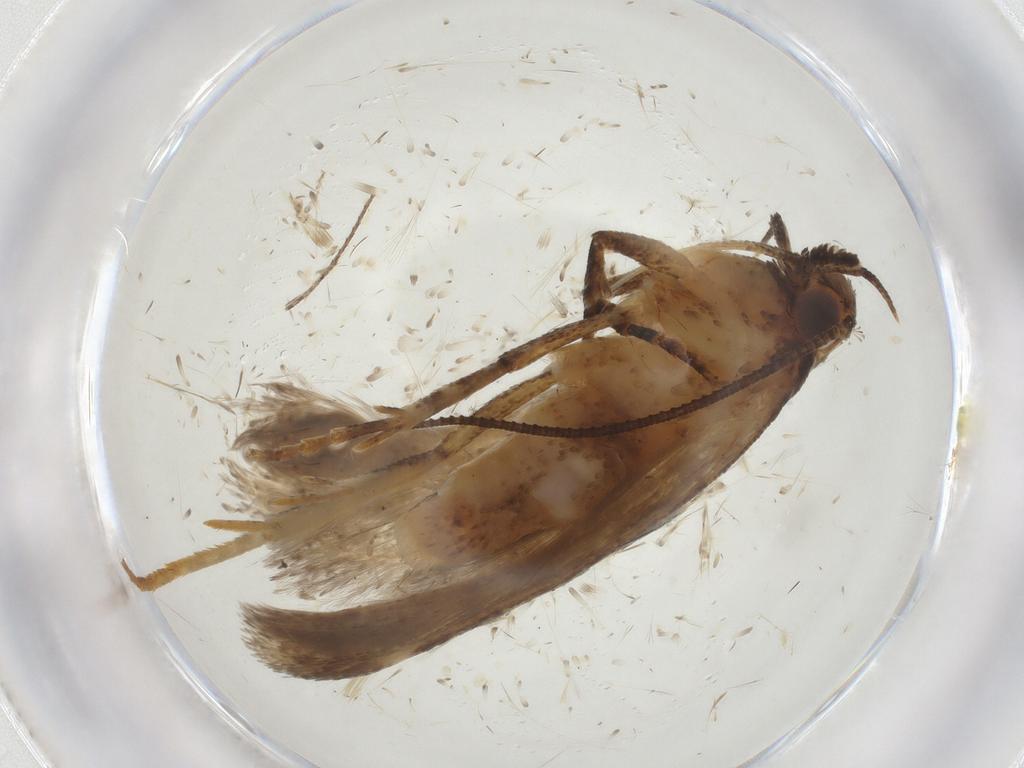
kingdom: Animalia
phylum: Arthropoda
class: Insecta
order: Lepidoptera
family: Gelechiidae
